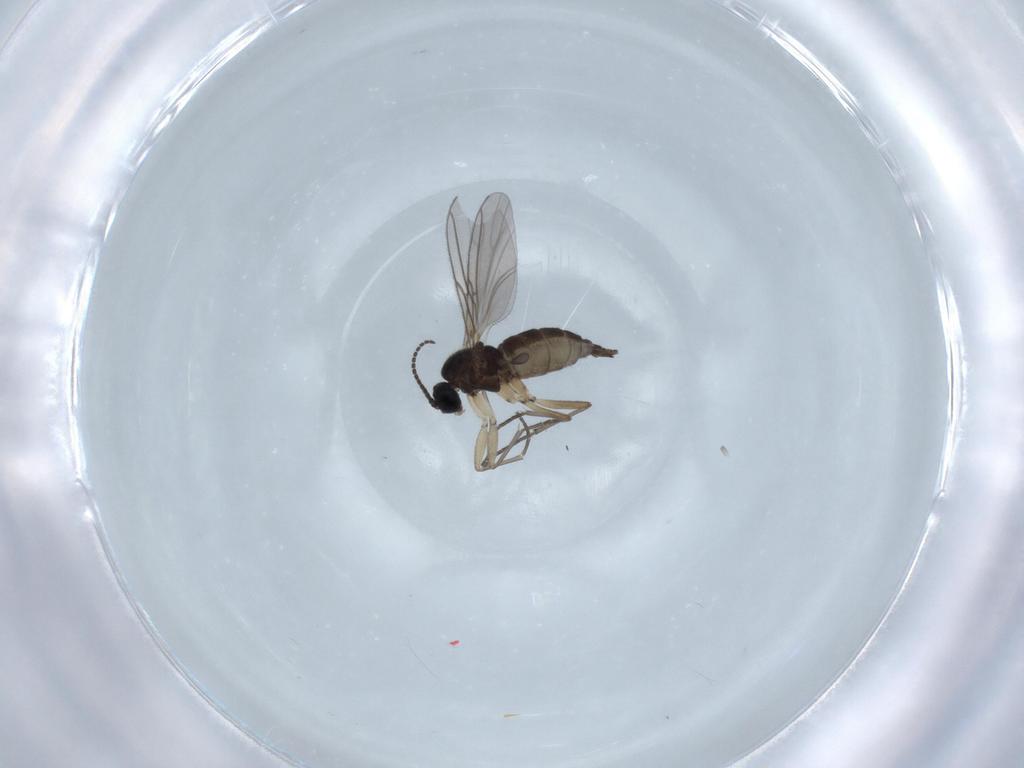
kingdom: Animalia
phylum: Arthropoda
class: Insecta
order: Diptera
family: Sciaridae
